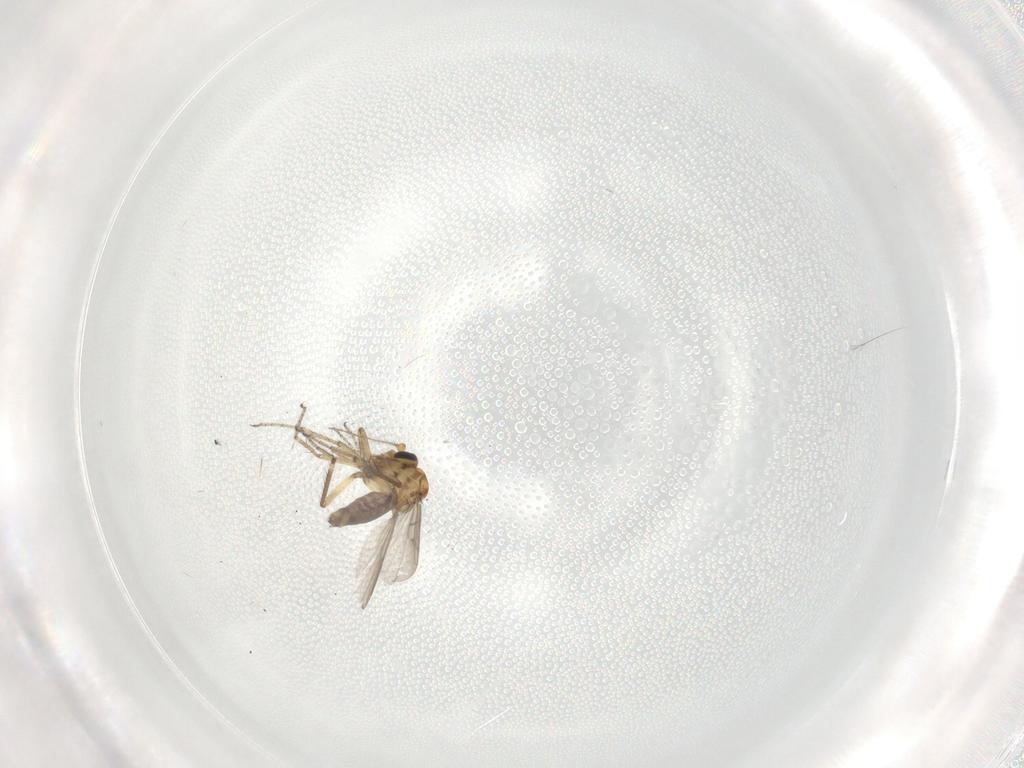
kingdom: Animalia
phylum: Arthropoda
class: Insecta
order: Diptera
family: Ceratopogonidae
